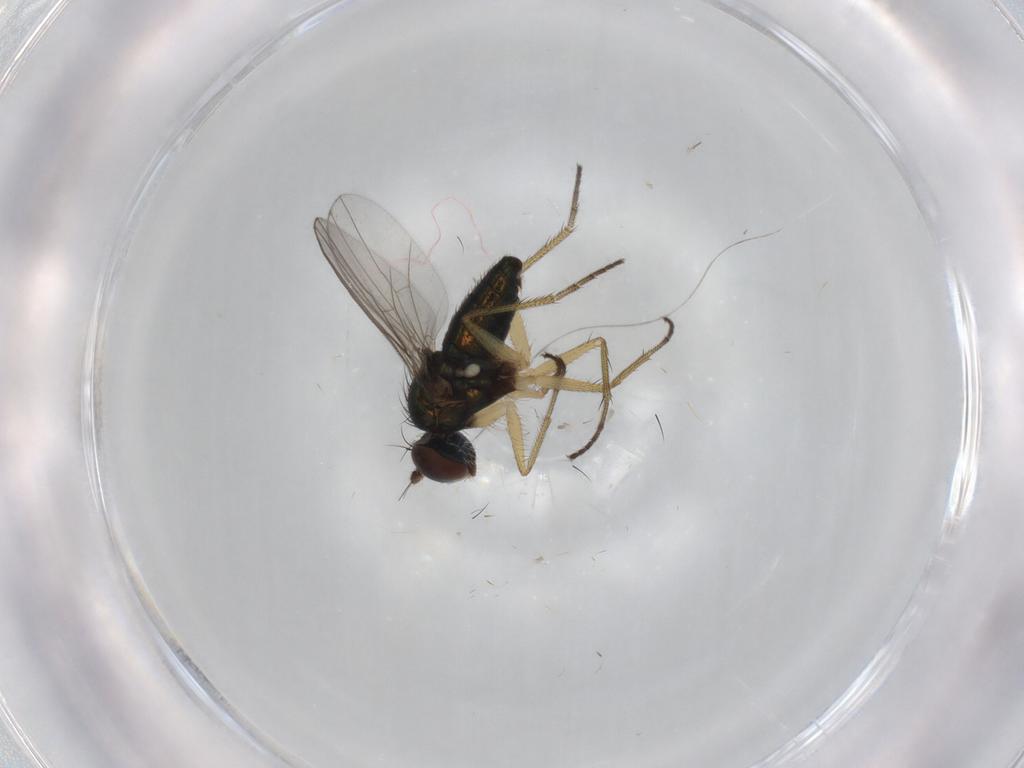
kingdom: Animalia
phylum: Arthropoda
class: Insecta
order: Diptera
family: Dolichopodidae
